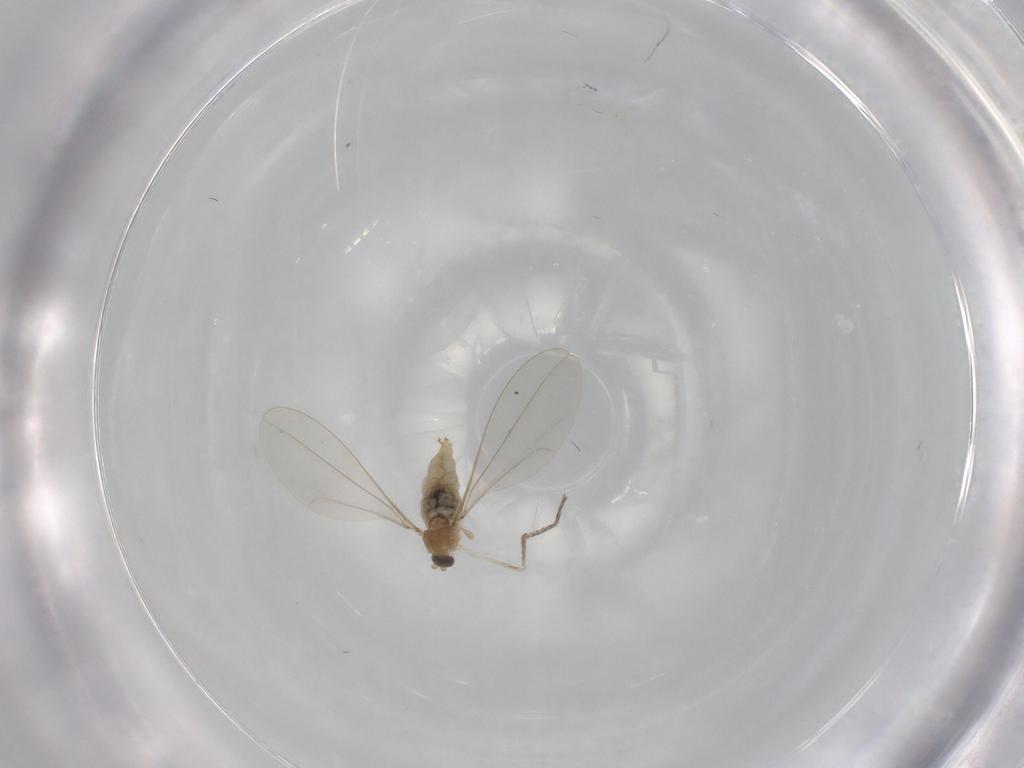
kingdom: Animalia
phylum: Arthropoda
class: Insecta
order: Diptera
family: Cecidomyiidae
